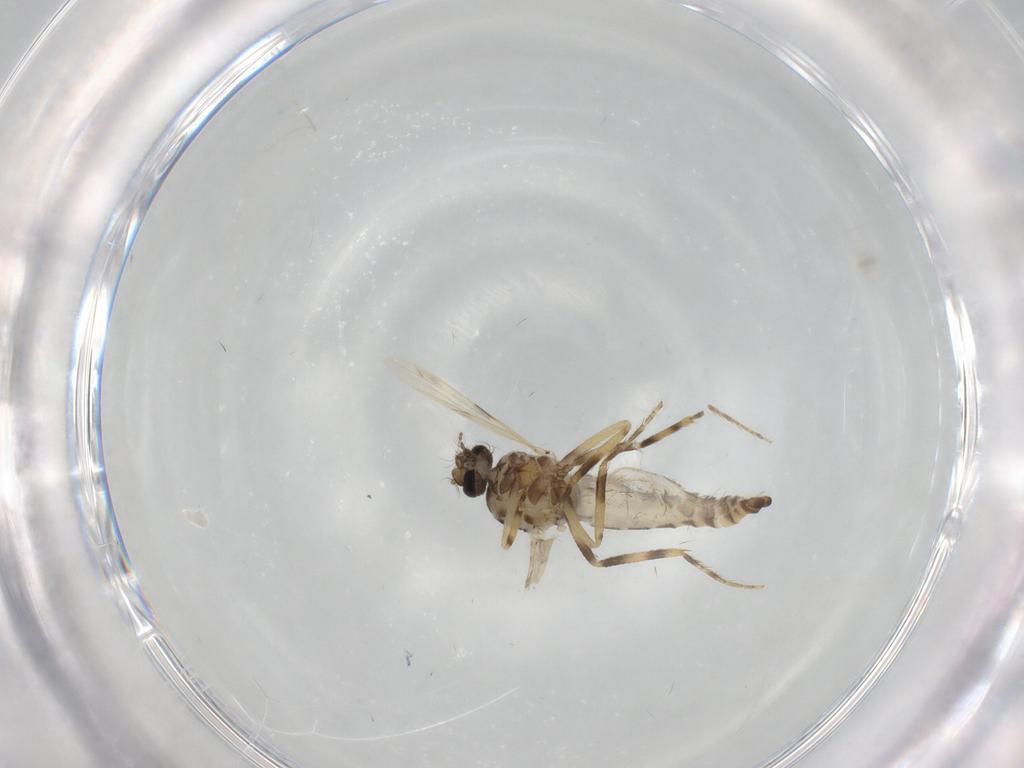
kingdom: Animalia
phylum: Arthropoda
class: Insecta
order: Diptera
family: Ceratopogonidae
